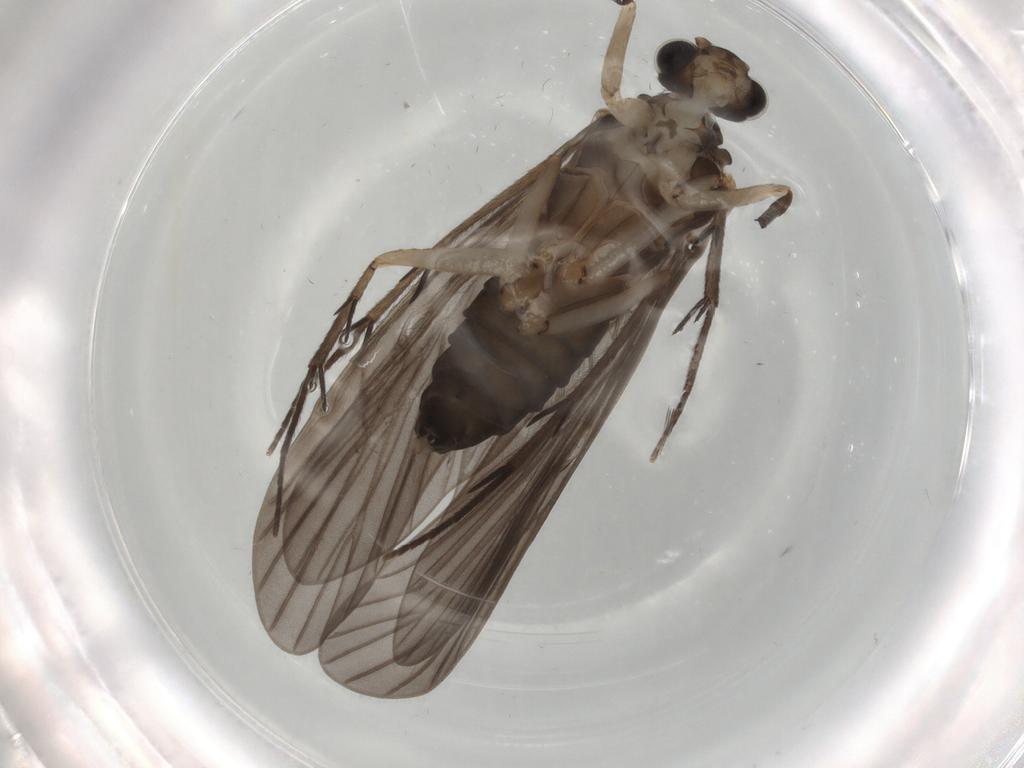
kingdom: Animalia
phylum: Arthropoda
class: Insecta
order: Trichoptera
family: Philopotamidae
